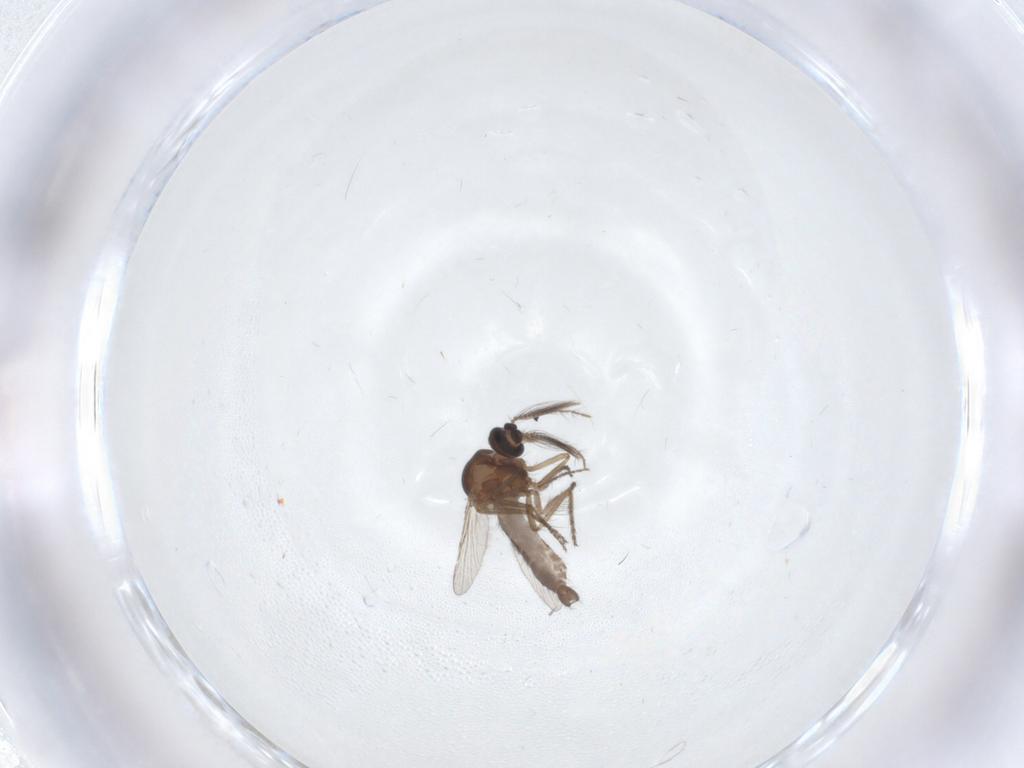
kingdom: Animalia
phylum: Arthropoda
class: Insecta
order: Diptera
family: Ceratopogonidae
